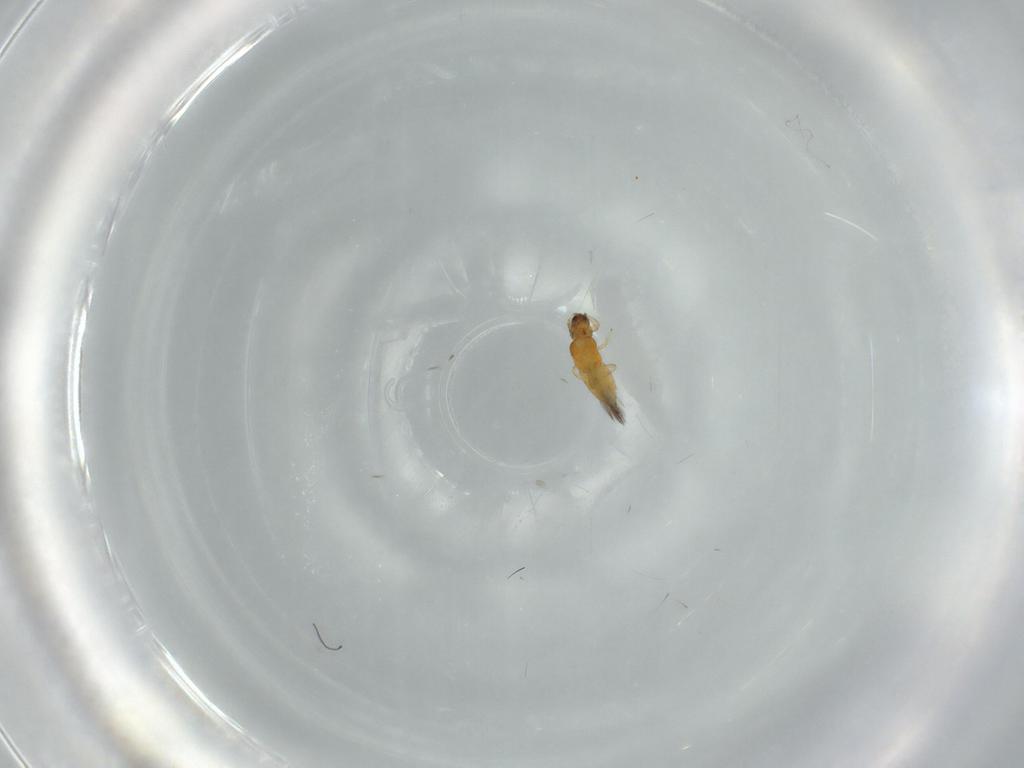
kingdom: Animalia
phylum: Arthropoda
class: Insecta
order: Thysanoptera
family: Heterothripidae
